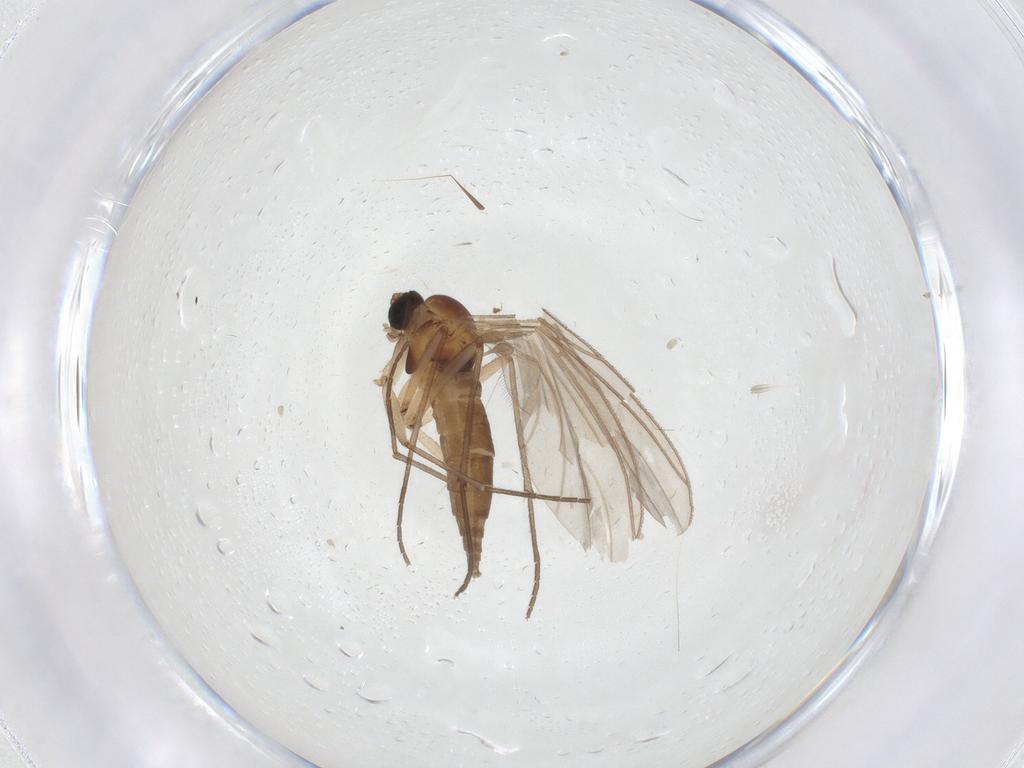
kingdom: Animalia
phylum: Arthropoda
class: Insecta
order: Diptera
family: Sciaridae
